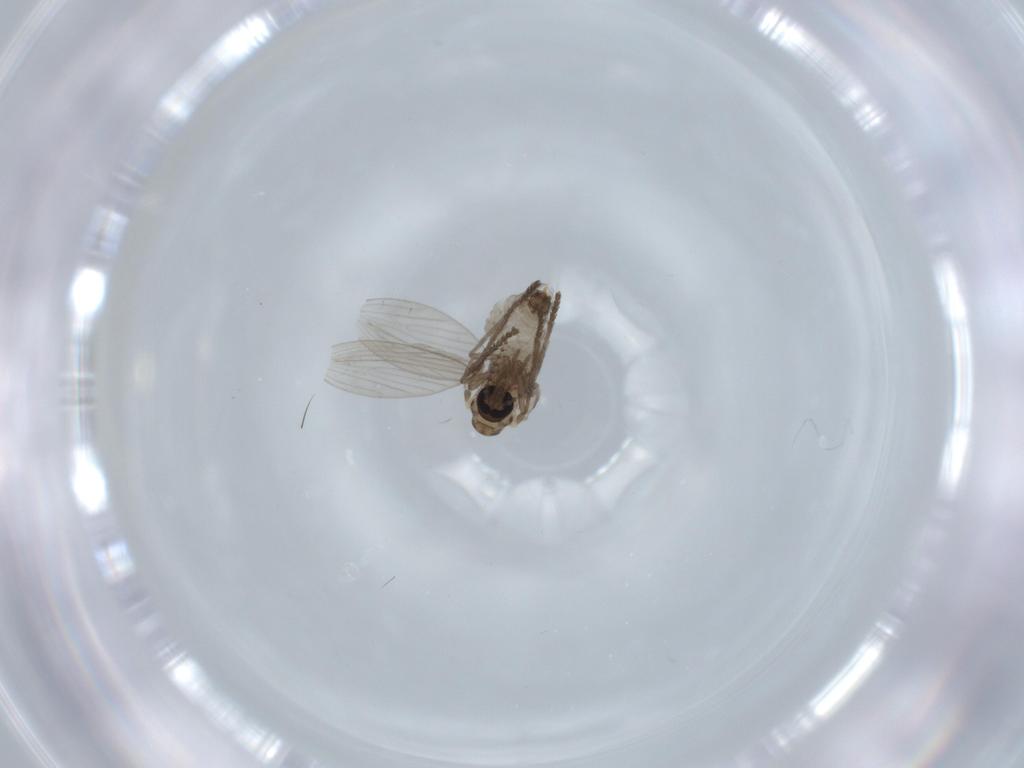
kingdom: Animalia
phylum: Arthropoda
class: Insecta
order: Diptera
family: Psychodidae
